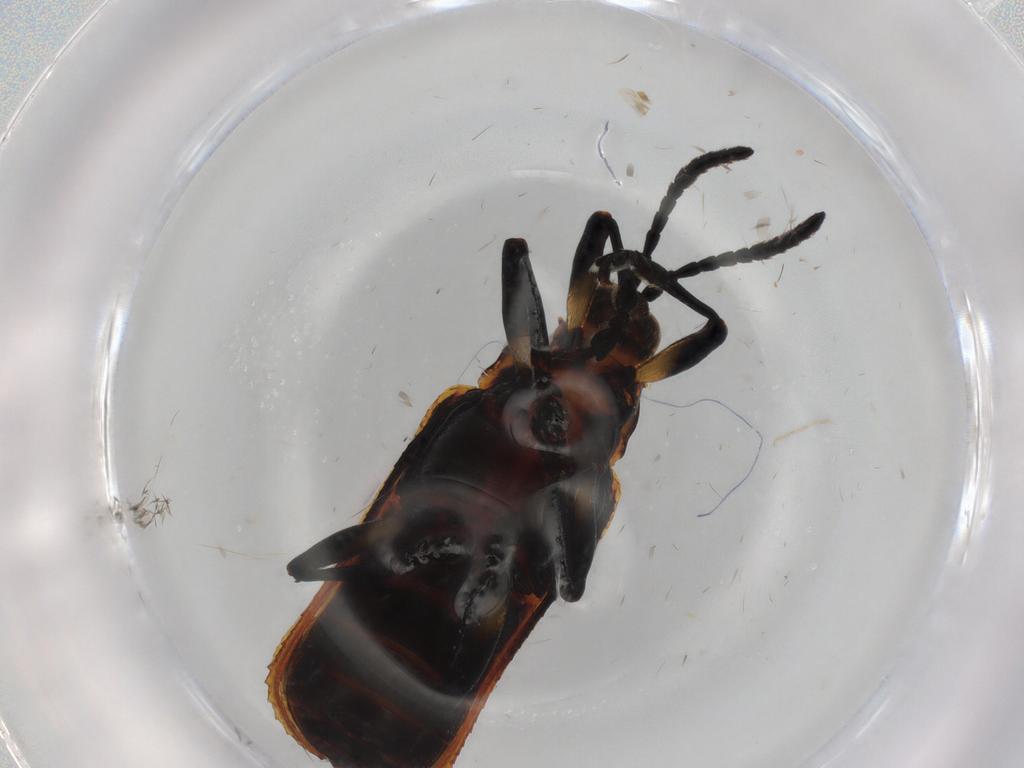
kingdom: Animalia
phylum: Arthropoda
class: Insecta
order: Coleoptera
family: Chrysomelidae
